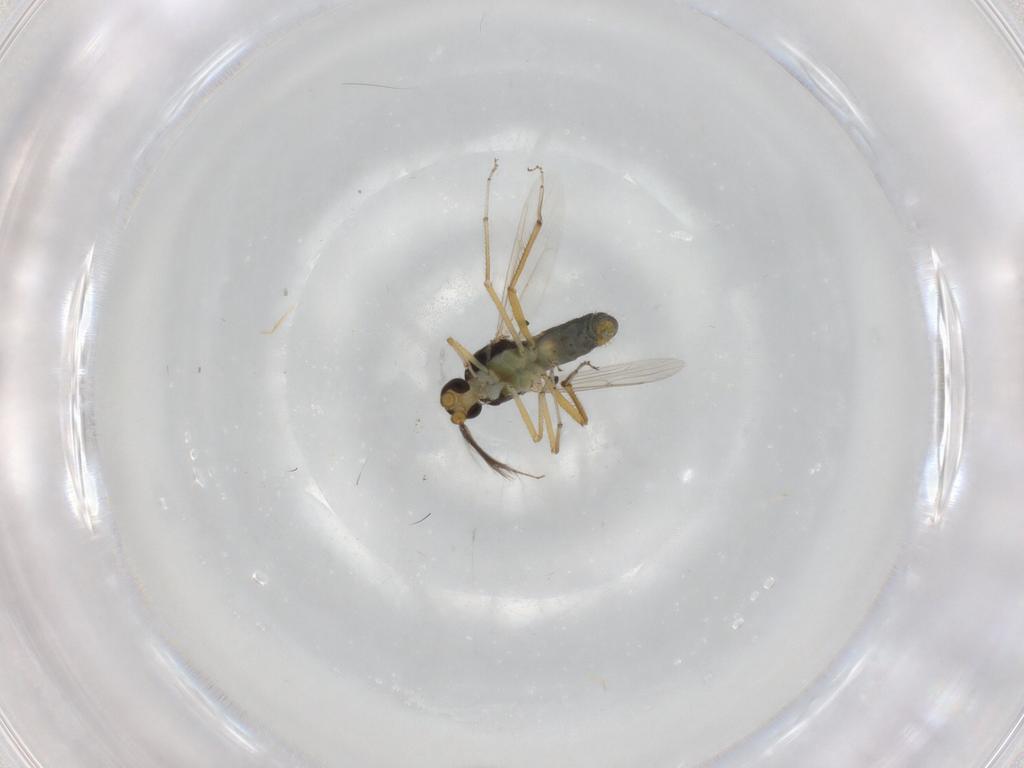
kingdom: Animalia
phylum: Arthropoda
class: Insecta
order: Diptera
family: Ceratopogonidae
